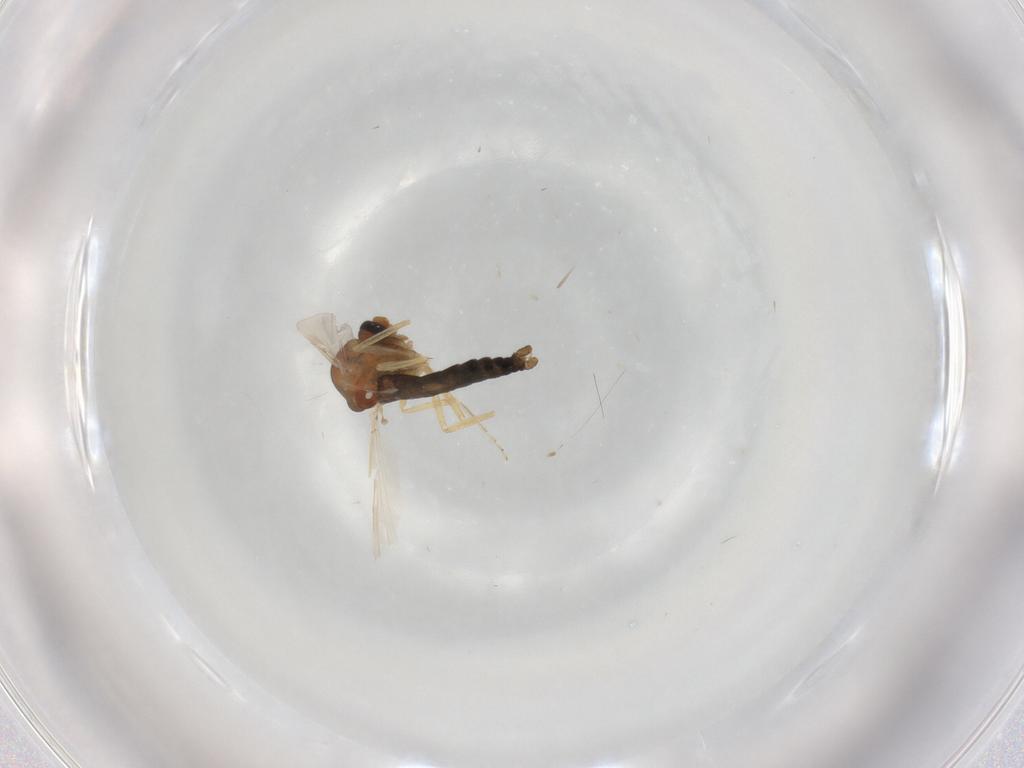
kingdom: Animalia
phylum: Arthropoda
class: Insecta
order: Diptera
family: Ceratopogonidae
